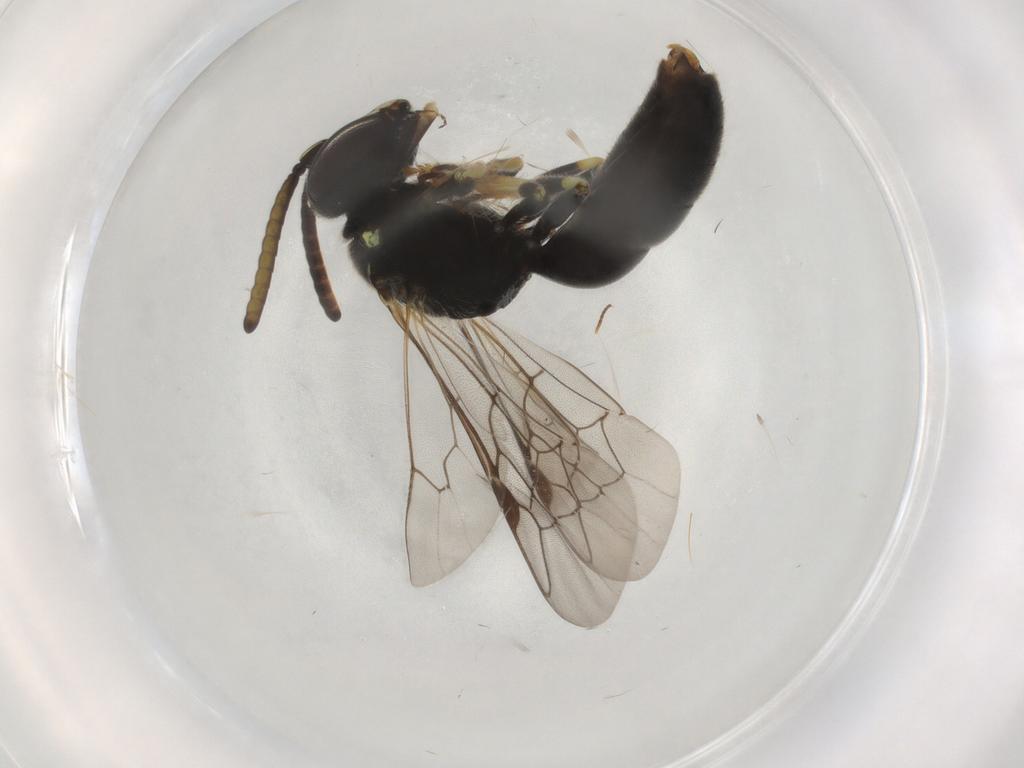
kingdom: Animalia
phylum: Arthropoda
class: Insecta
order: Hymenoptera
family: Colletidae
